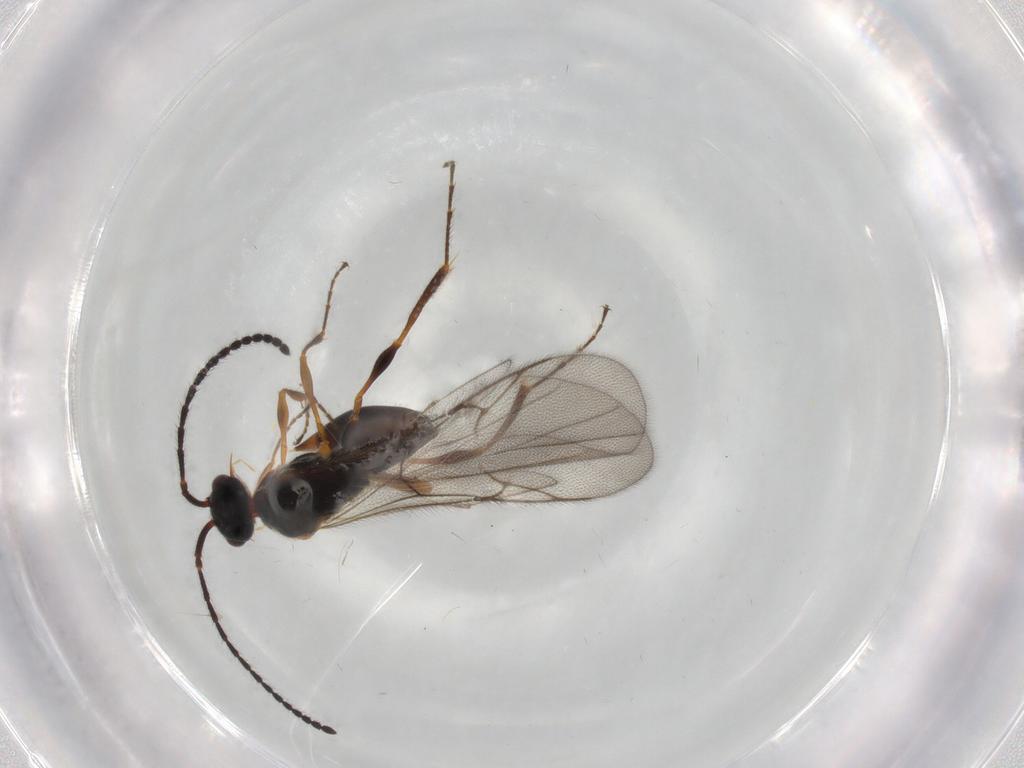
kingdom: Animalia
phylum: Arthropoda
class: Insecta
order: Hymenoptera
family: Diapriidae
